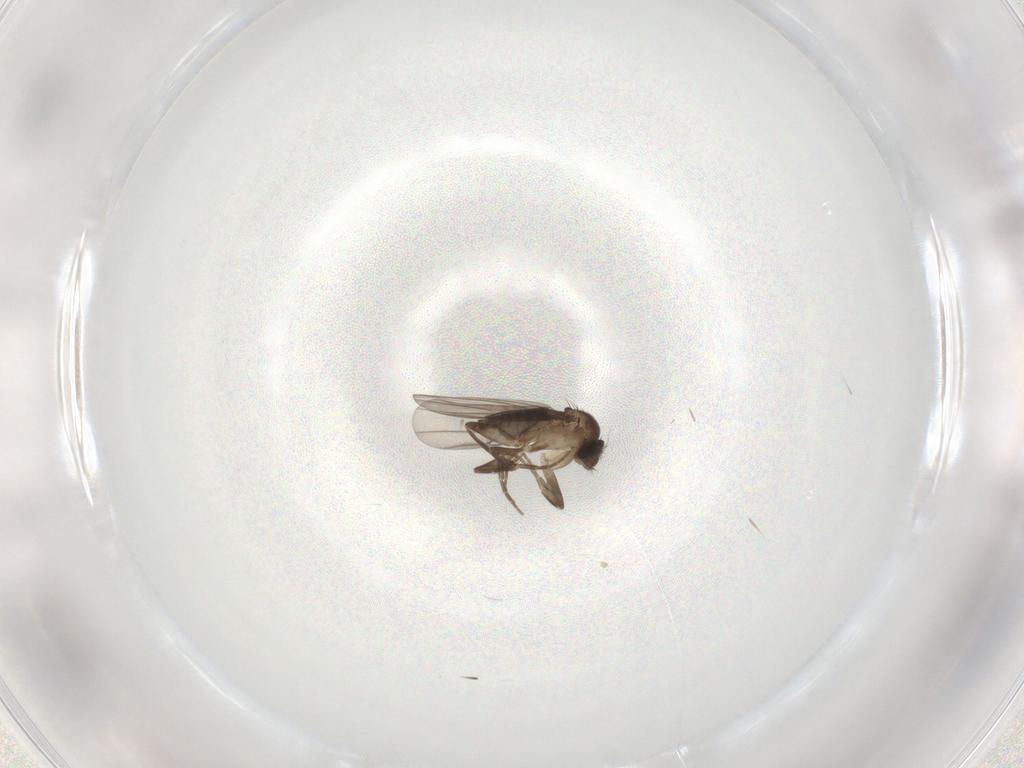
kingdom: Animalia
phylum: Arthropoda
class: Insecta
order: Diptera
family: Phoridae
